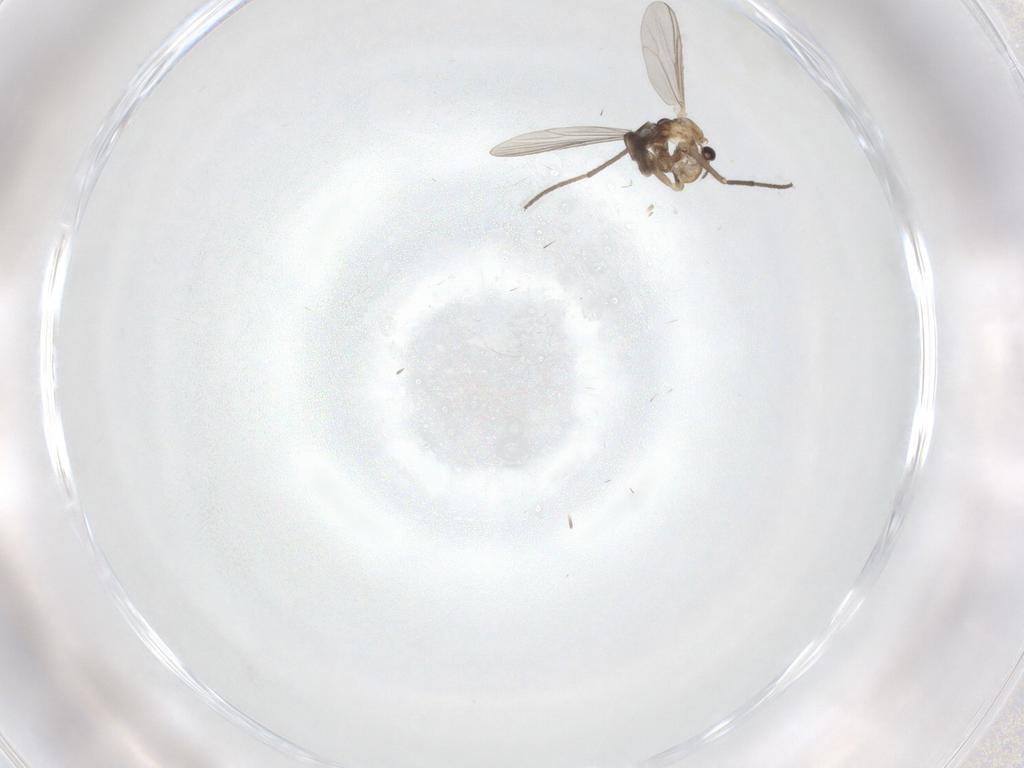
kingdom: Animalia
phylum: Arthropoda
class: Insecta
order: Diptera
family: Chironomidae
